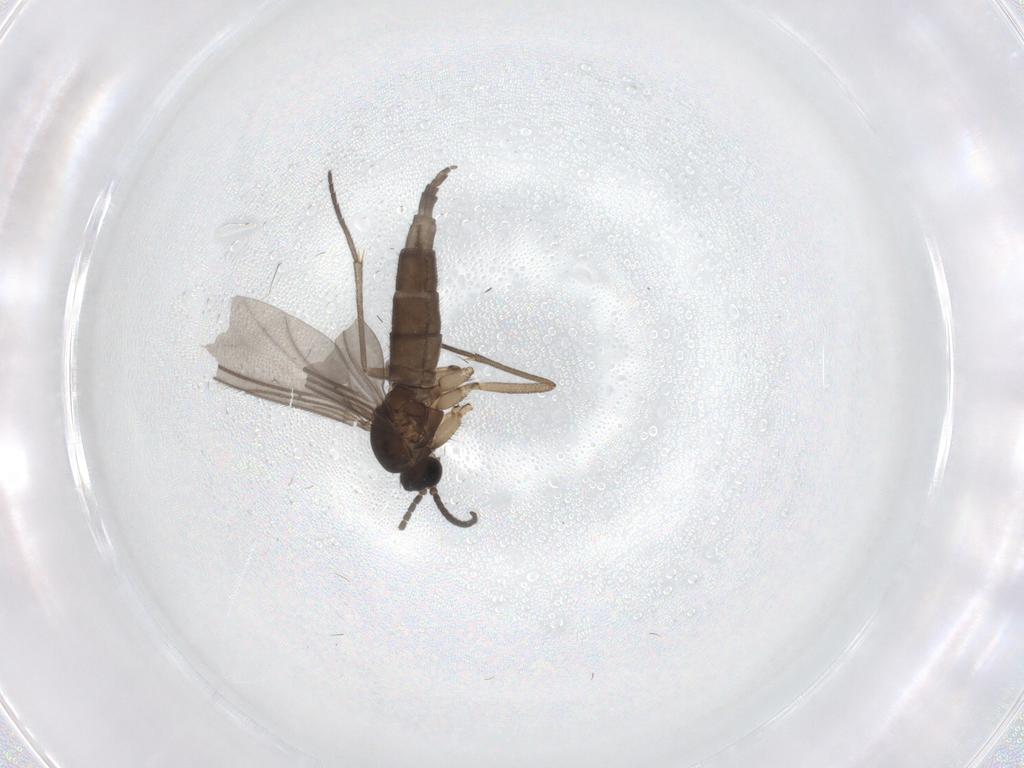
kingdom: Animalia
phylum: Arthropoda
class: Insecta
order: Diptera
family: Sciaridae
